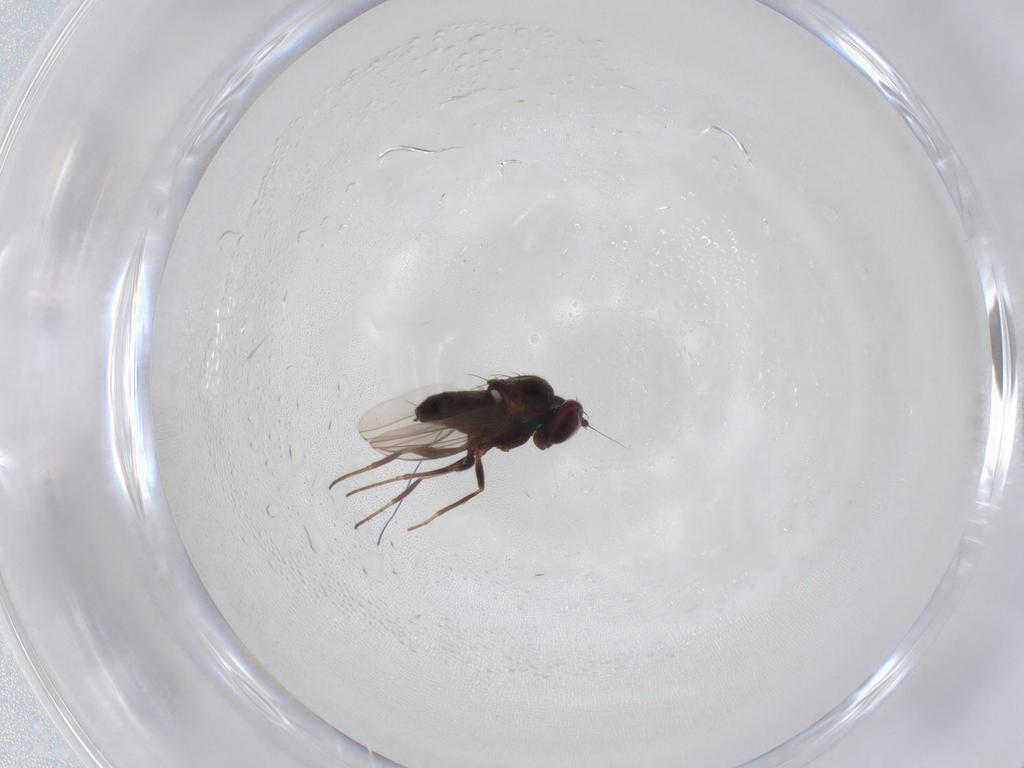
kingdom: Animalia
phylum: Arthropoda
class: Insecta
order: Diptera
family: Dolichopodidae
